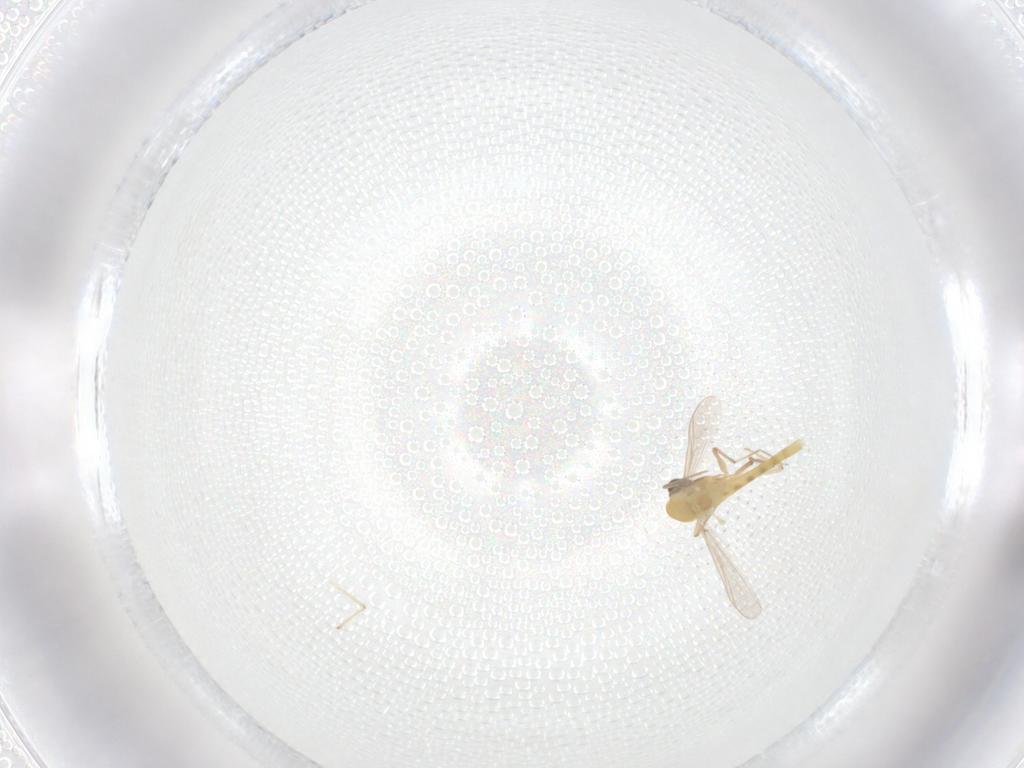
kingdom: Animalia
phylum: Arthropoda
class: Insecta
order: Diptera
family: Chironomidae
